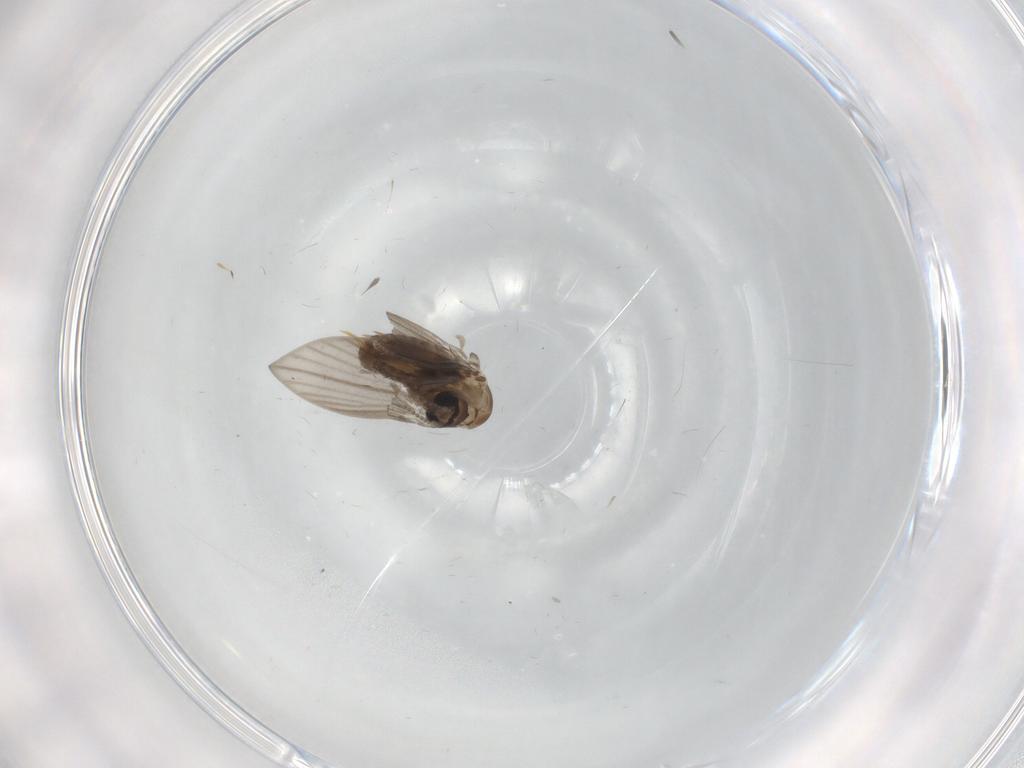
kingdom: Animalia
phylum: Arthropoda
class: Insecta
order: Diptera
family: Psychodidae
